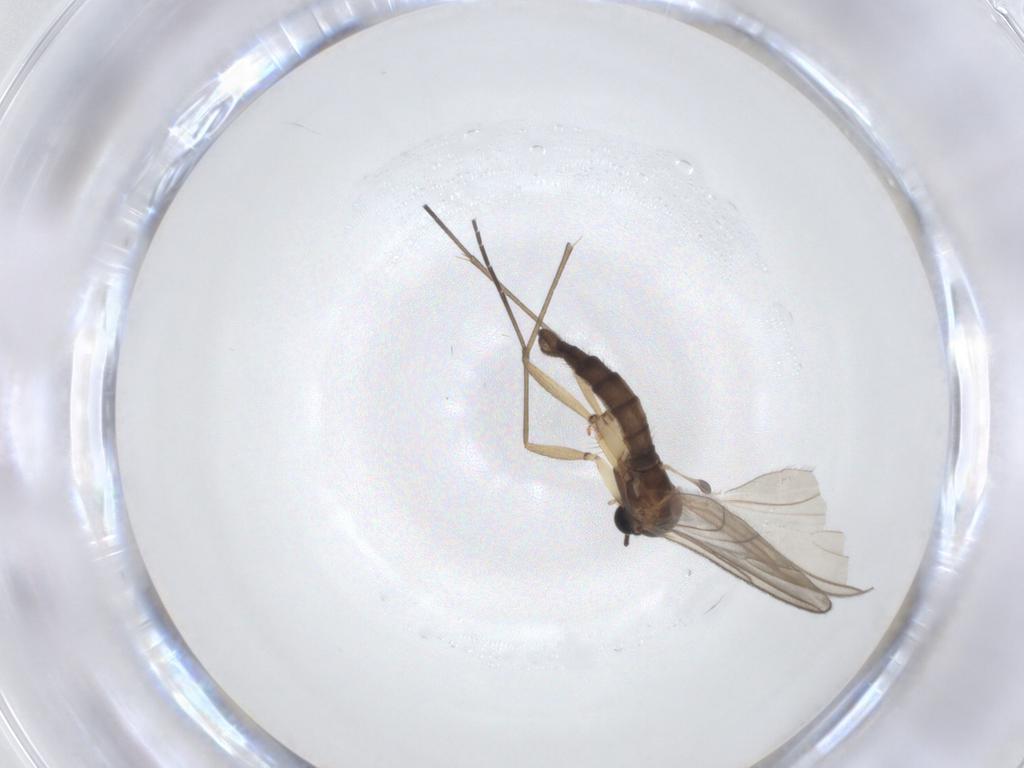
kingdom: Animalia
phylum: Arthropoda
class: Insecta
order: Diptera
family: Sciaridae
